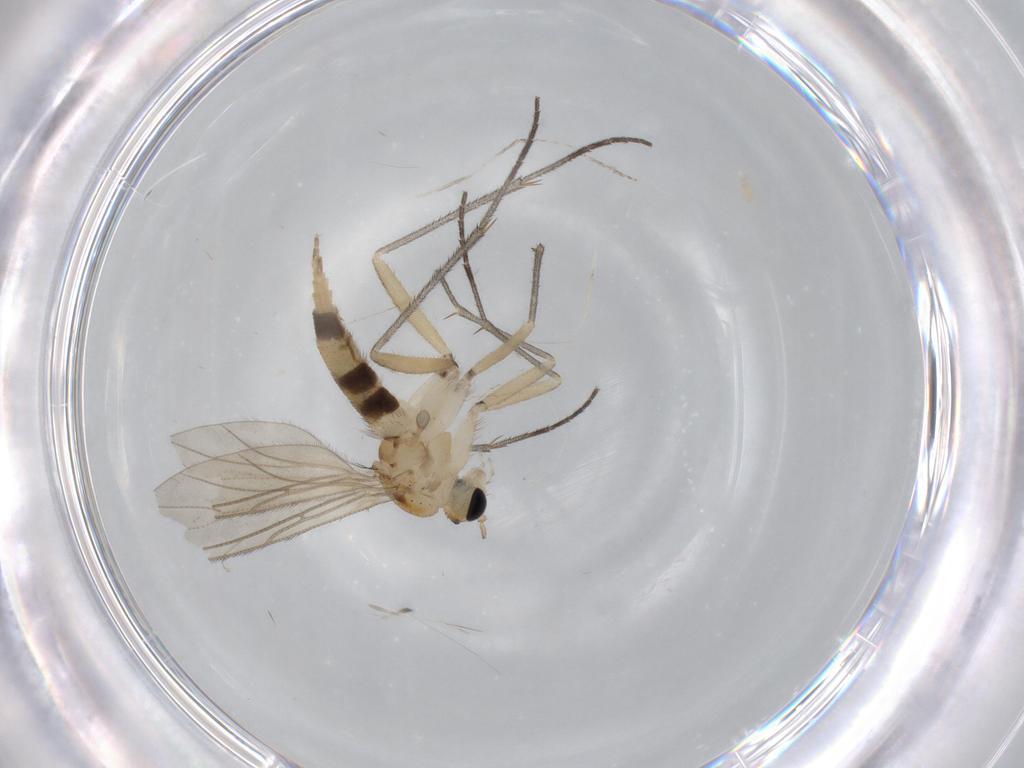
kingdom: Animalia
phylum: Arthropoda
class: Insecta
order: Diptera
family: Sciaridae
